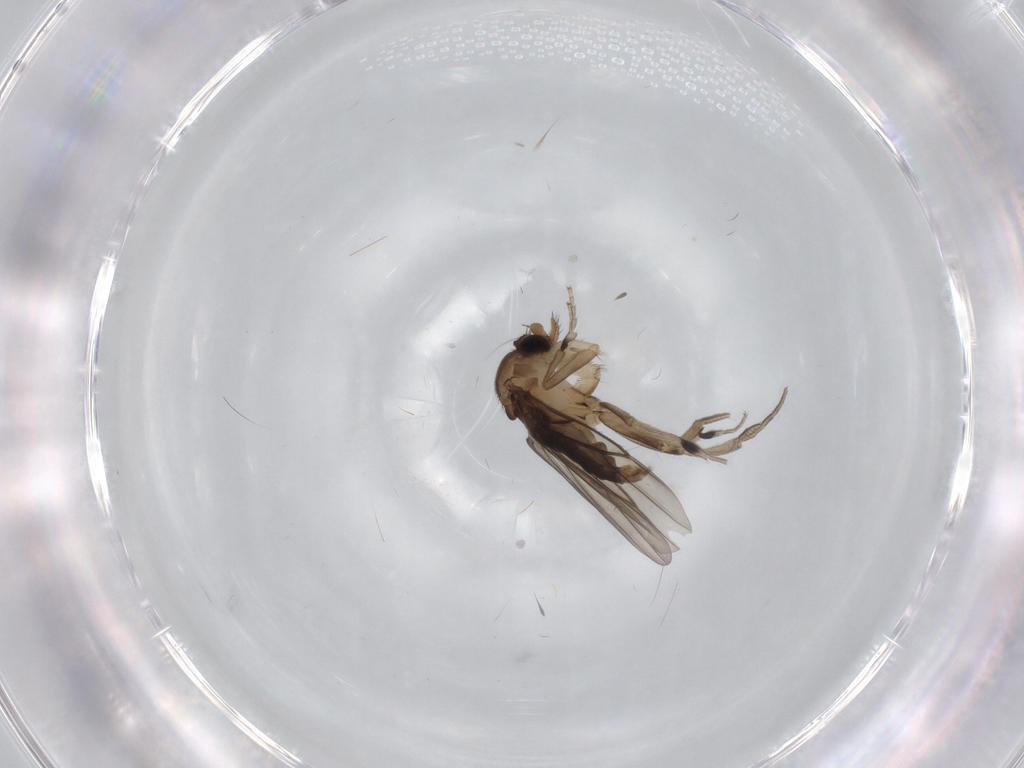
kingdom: Animalia
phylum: Arthropoda
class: Insecta
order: Diptera
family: Phoridae
